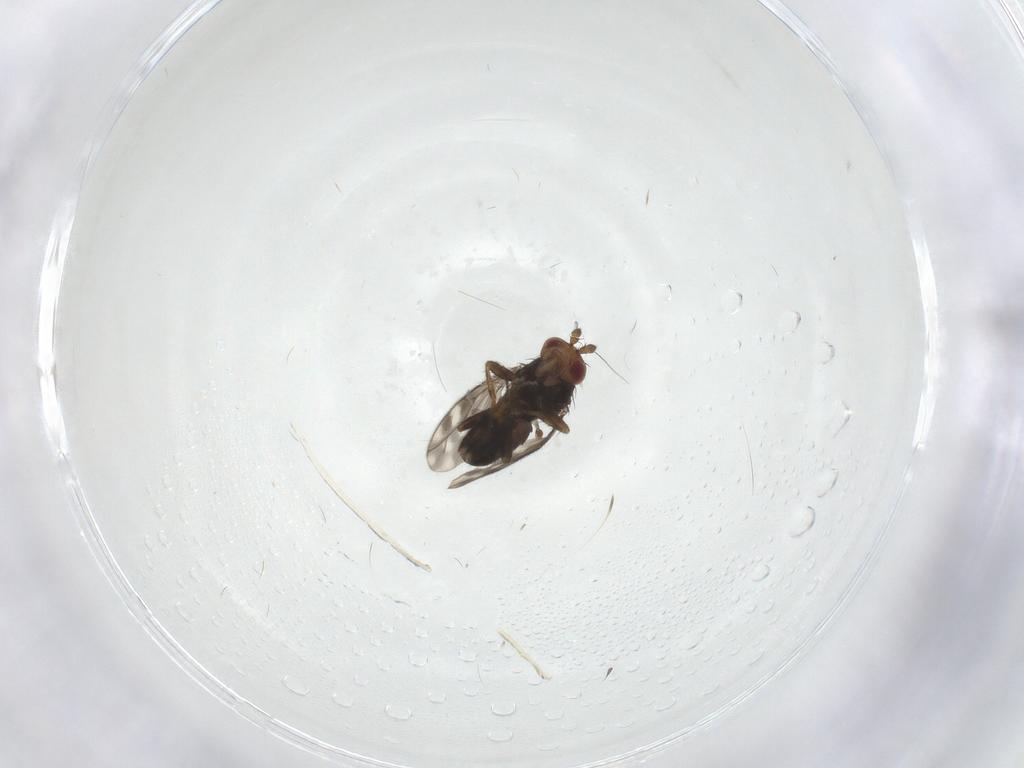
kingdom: Animalia
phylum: Arthropoda
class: Insecta
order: Diptera
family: Sphaeroceridae
